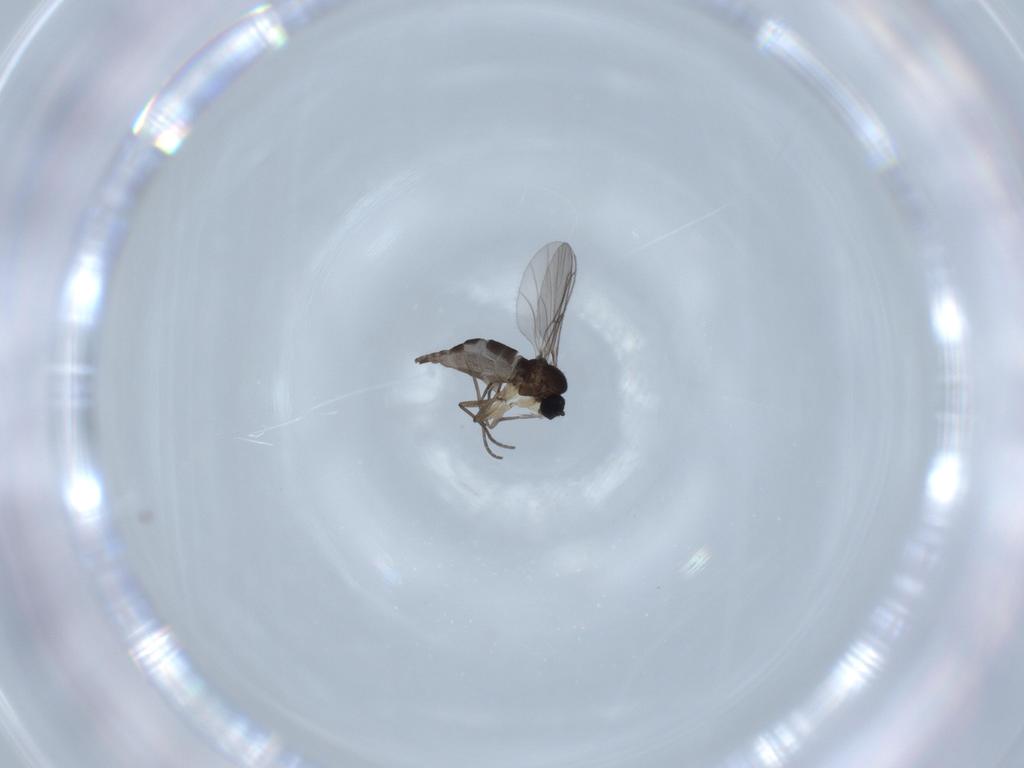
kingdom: Animalia
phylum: Arthropoda
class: Insecta
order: Diptera
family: Sciaridae
